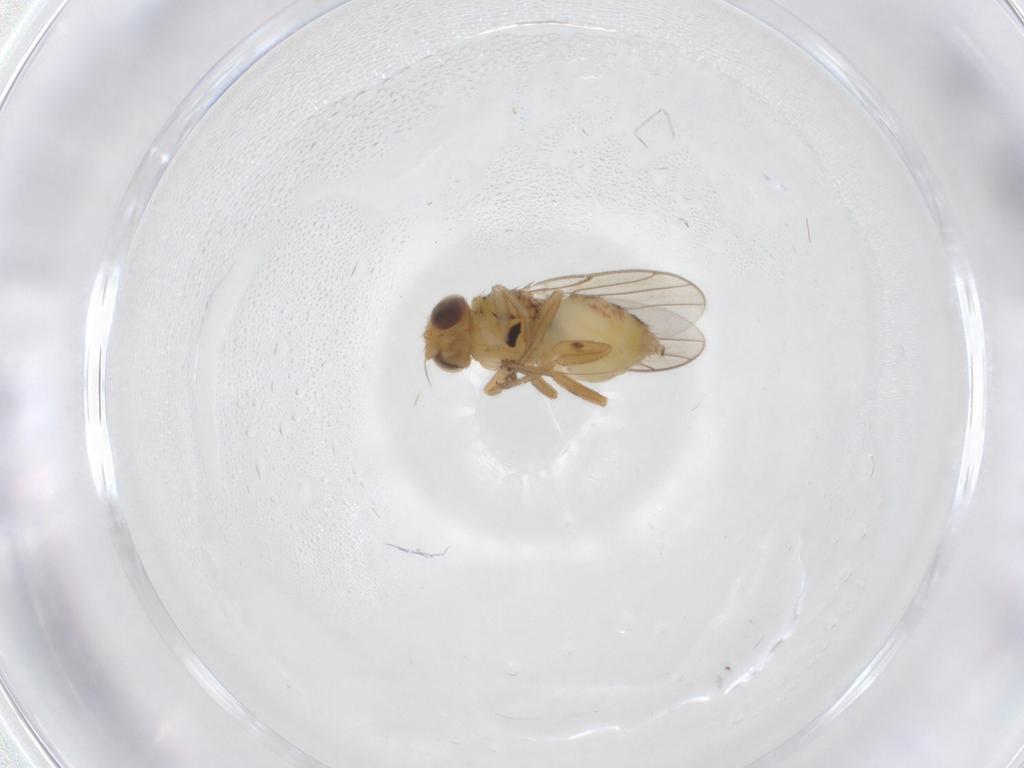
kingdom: Animalia
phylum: Arthropoda
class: Insecta
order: Diptera
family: Chloropidae
